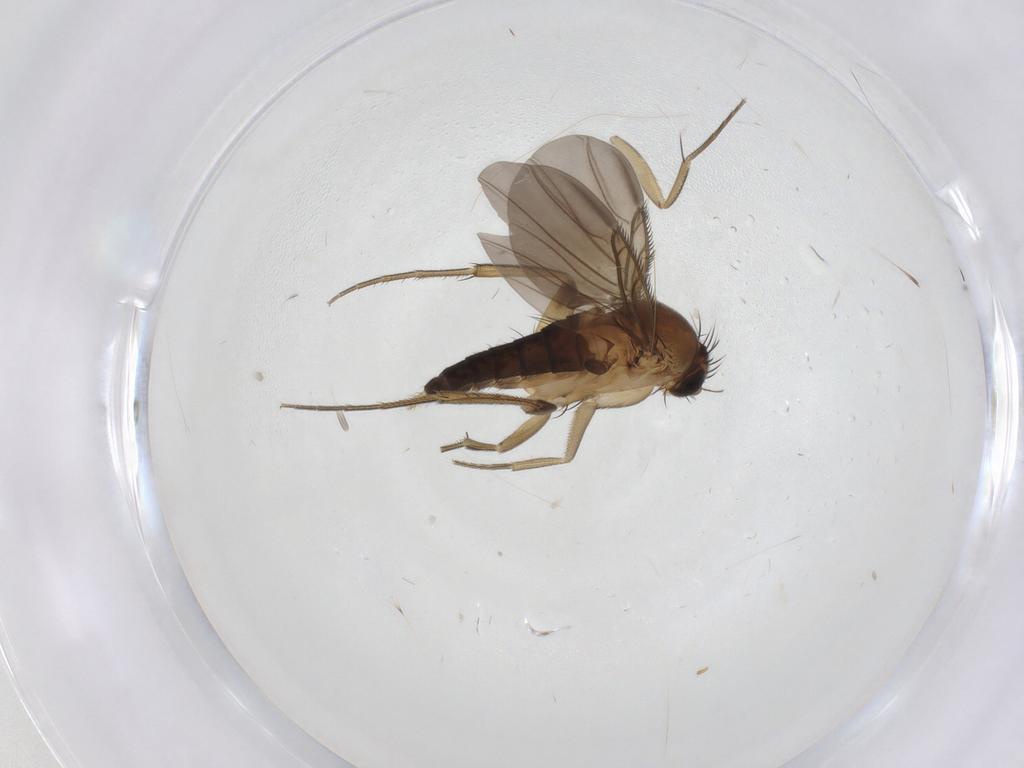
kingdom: Animalia
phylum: Arthropoda
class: Insecta
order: Diptera
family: Phoridae
